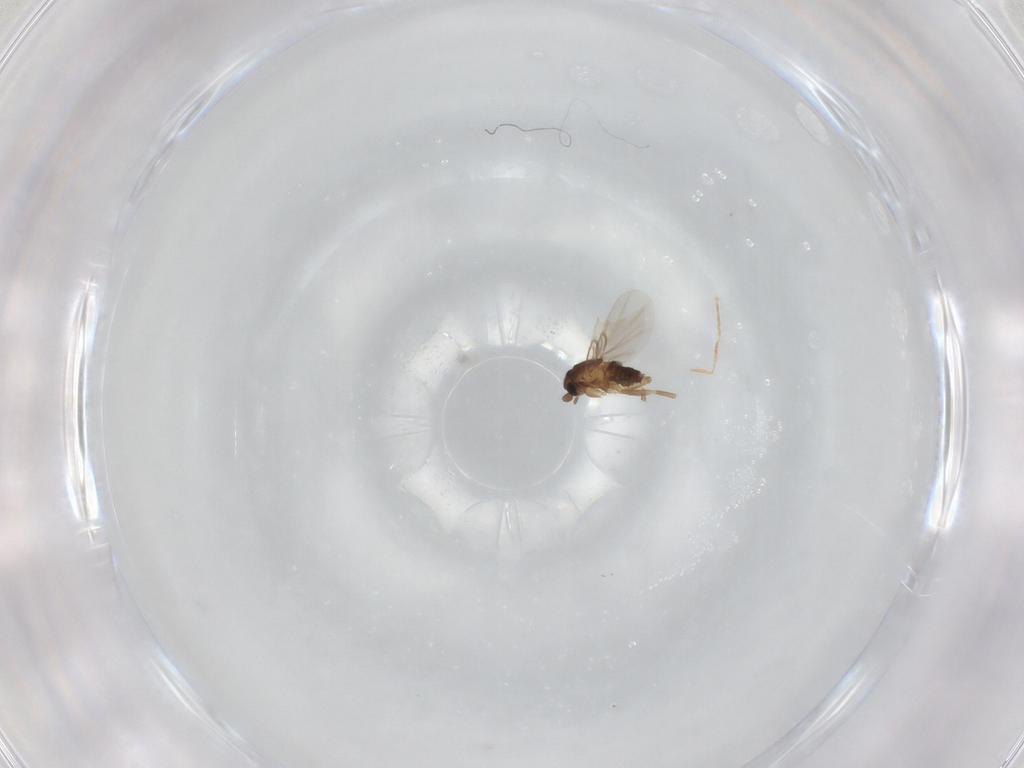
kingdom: Animalia
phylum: Arthropoda
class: Insecta
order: Diptera
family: Phoridae
